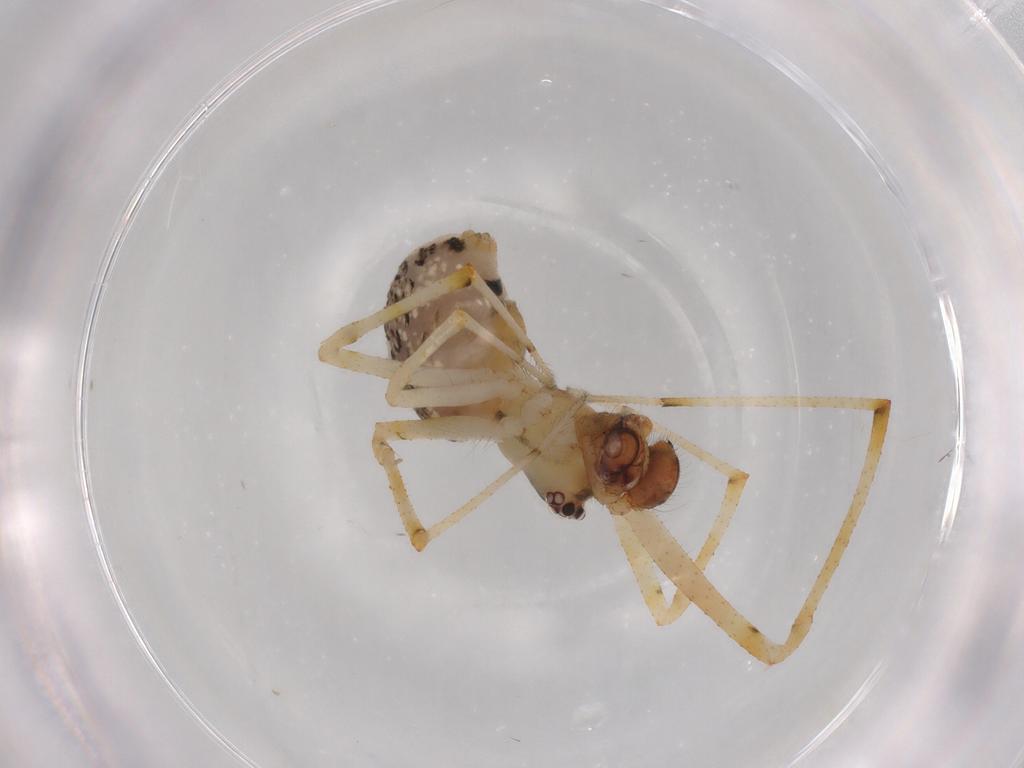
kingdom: Animalia
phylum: Arthropoda
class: Arachnida
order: Araneae
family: Theridiidae
